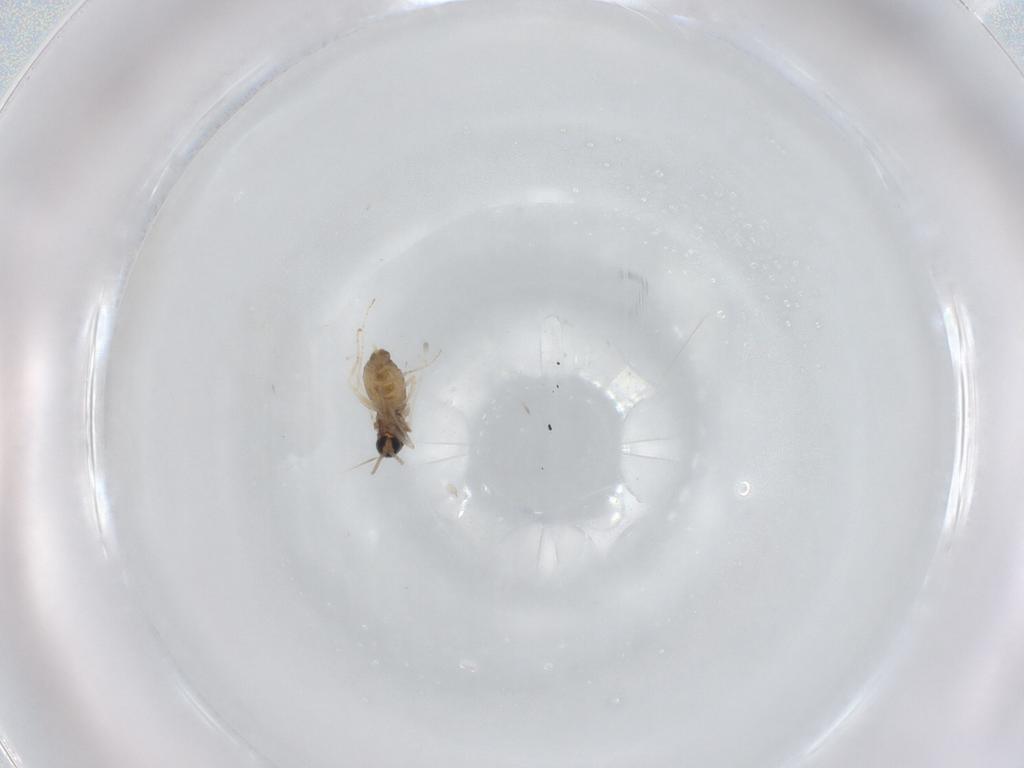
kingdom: Animalia
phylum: Arthropoda
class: Insecta
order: Diptera
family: Cecidomyiidae
